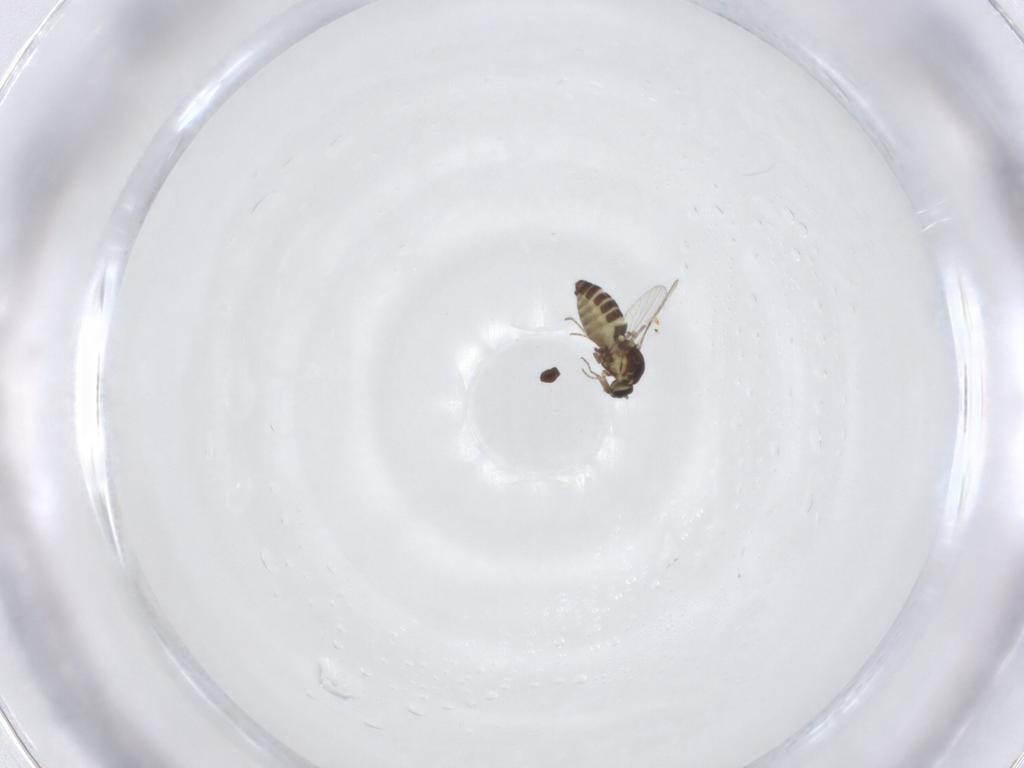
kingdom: Animalia
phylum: Arthropoda
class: Insecta
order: Diptera
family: Ceratopogonidae
